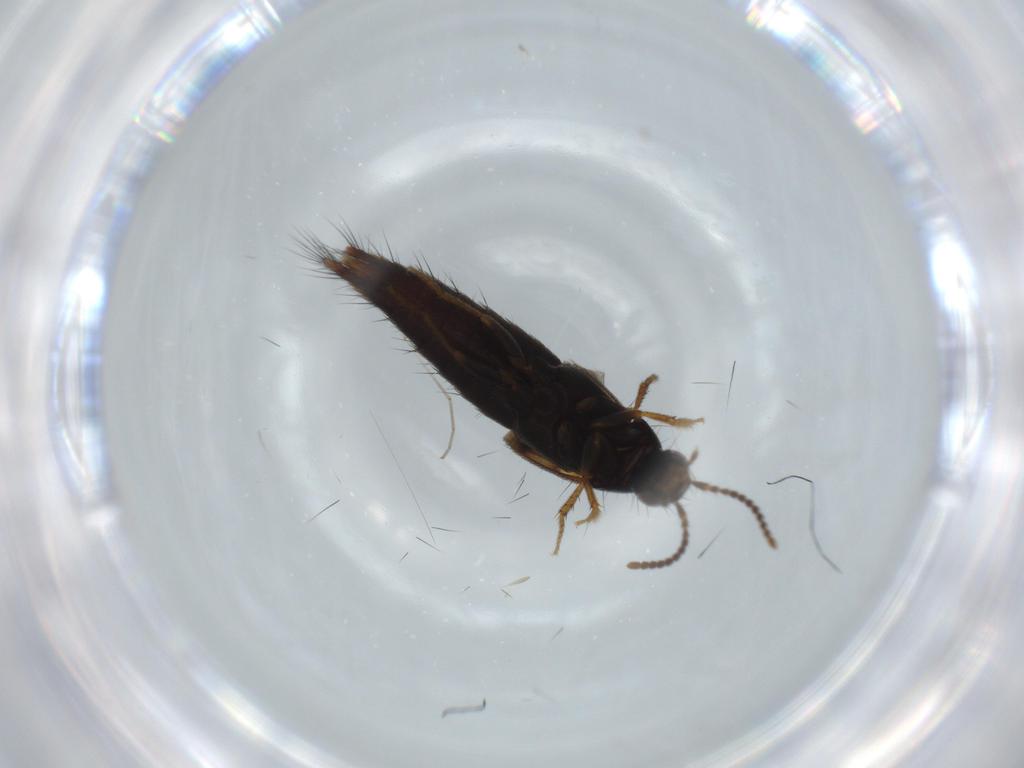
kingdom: Animalia
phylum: Arthropoda
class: Insecta
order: Coleoptera
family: Staphylinidae
